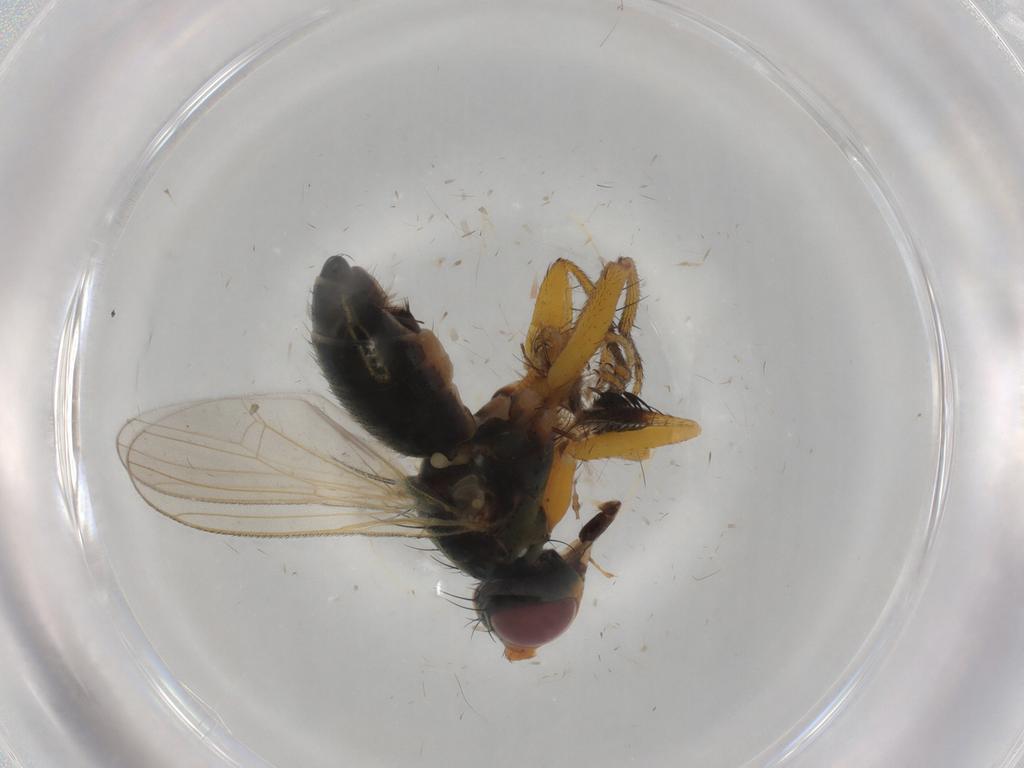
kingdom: Animalia
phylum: Arthropoda
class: Insecta
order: Diptera
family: Muscidae
